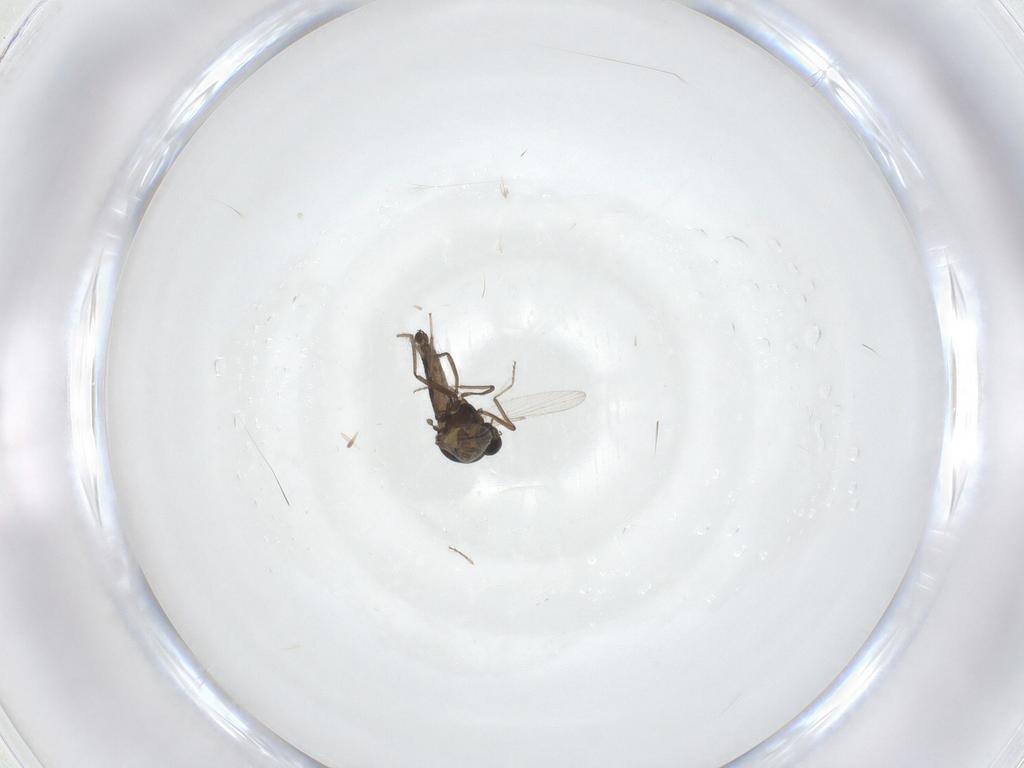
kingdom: Animalia
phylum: Arthropoda
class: Insecta
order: Diptera
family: Ceratopogonidae
